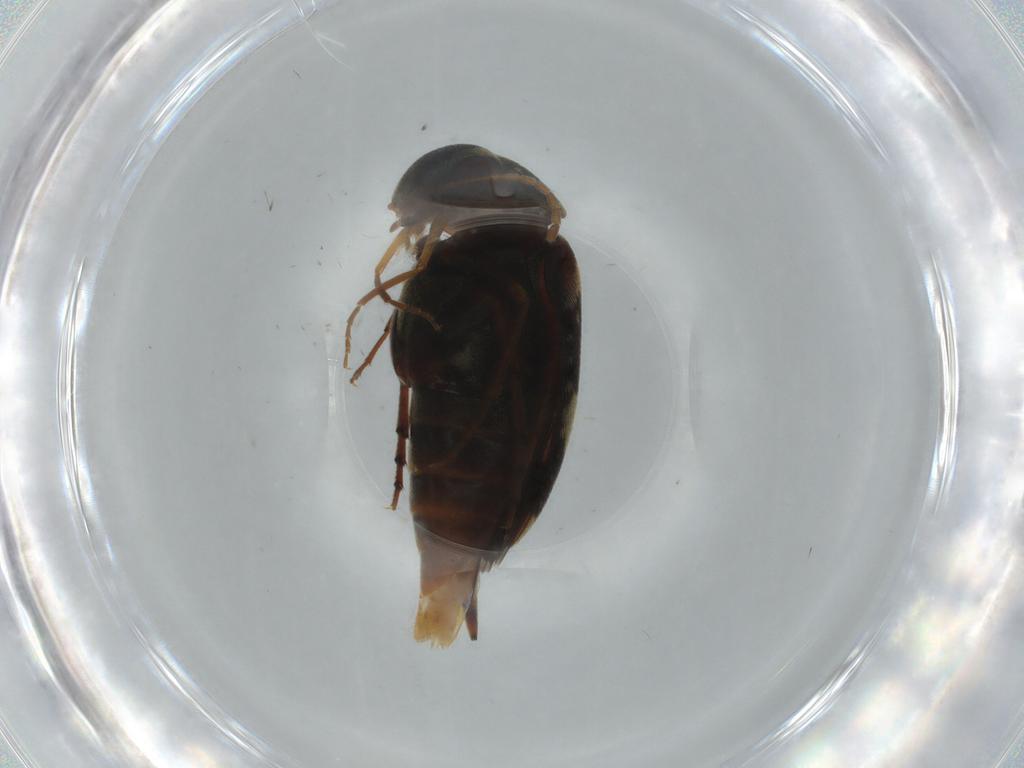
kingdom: Animalia
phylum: Arthropoda
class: Insecta
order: Coleoptera
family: Mordellidae
